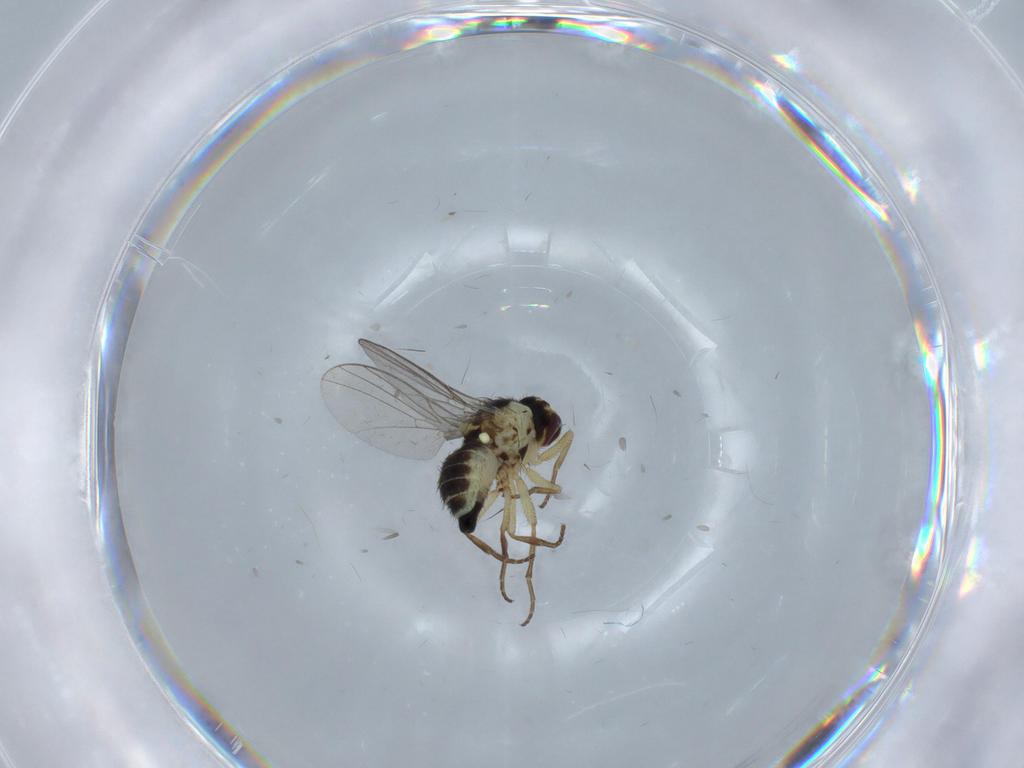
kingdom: Animalia
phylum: Arthropoda
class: Insecta
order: Diptera
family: Agromyzidae
